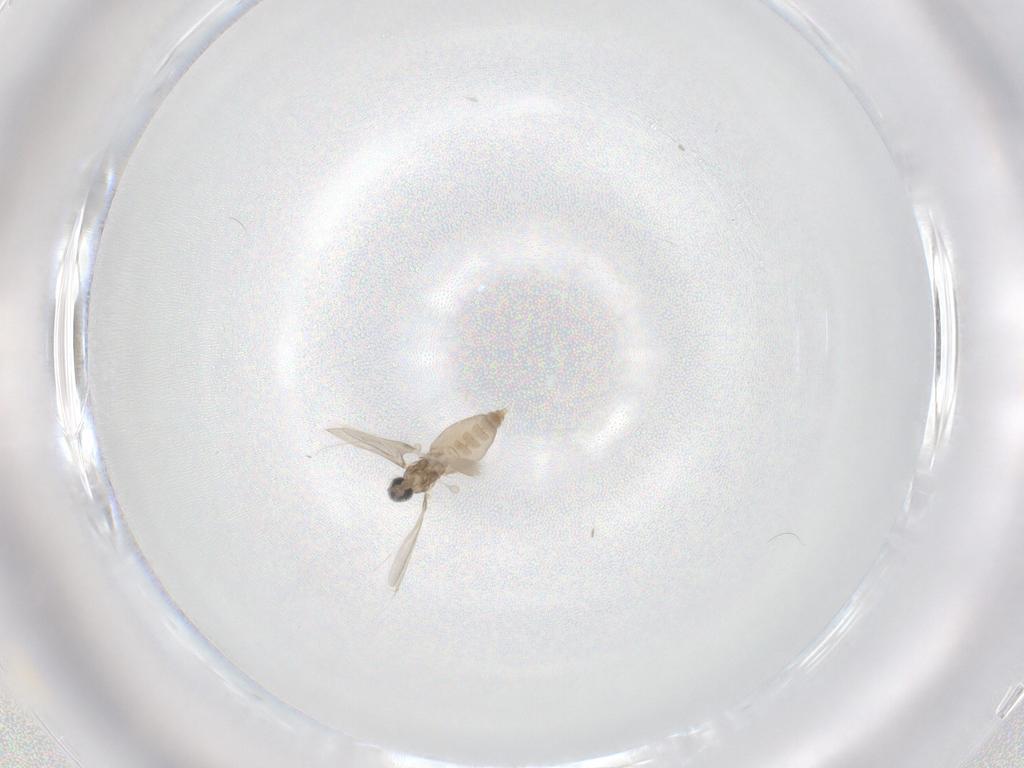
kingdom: Animalia
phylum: Arthropoda
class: Insecta
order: Diptera
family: Cecidomyiidae
